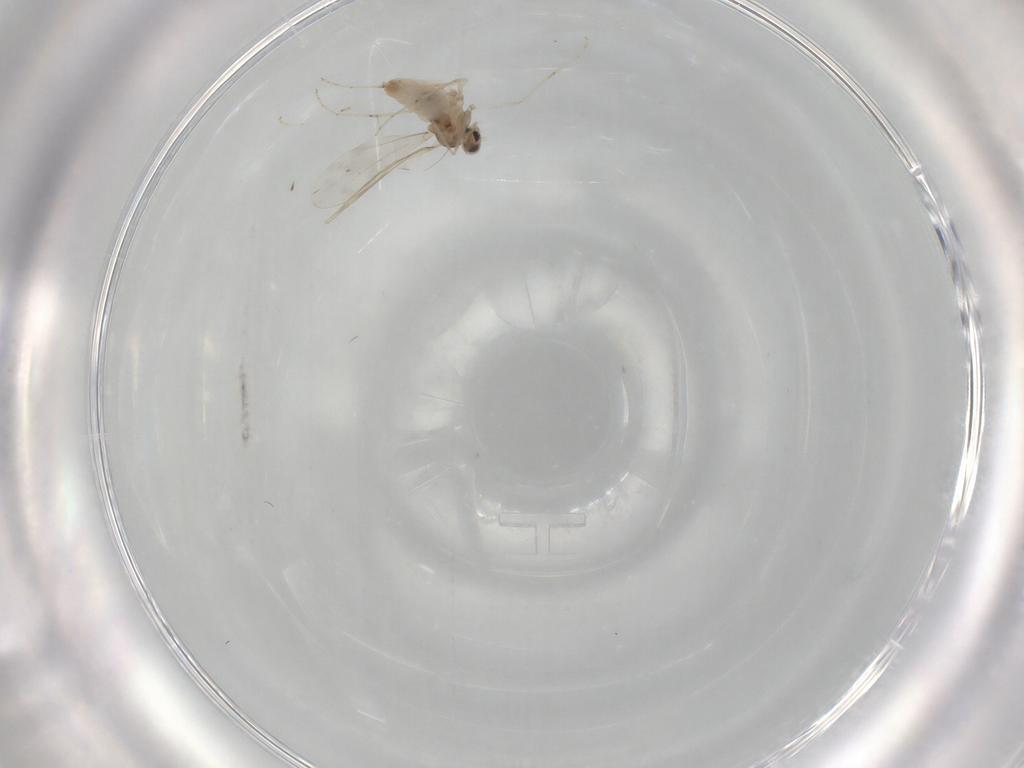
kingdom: Animalia
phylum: Arthropoda
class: Insecta
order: Diptera
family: Cecidomyiidae
